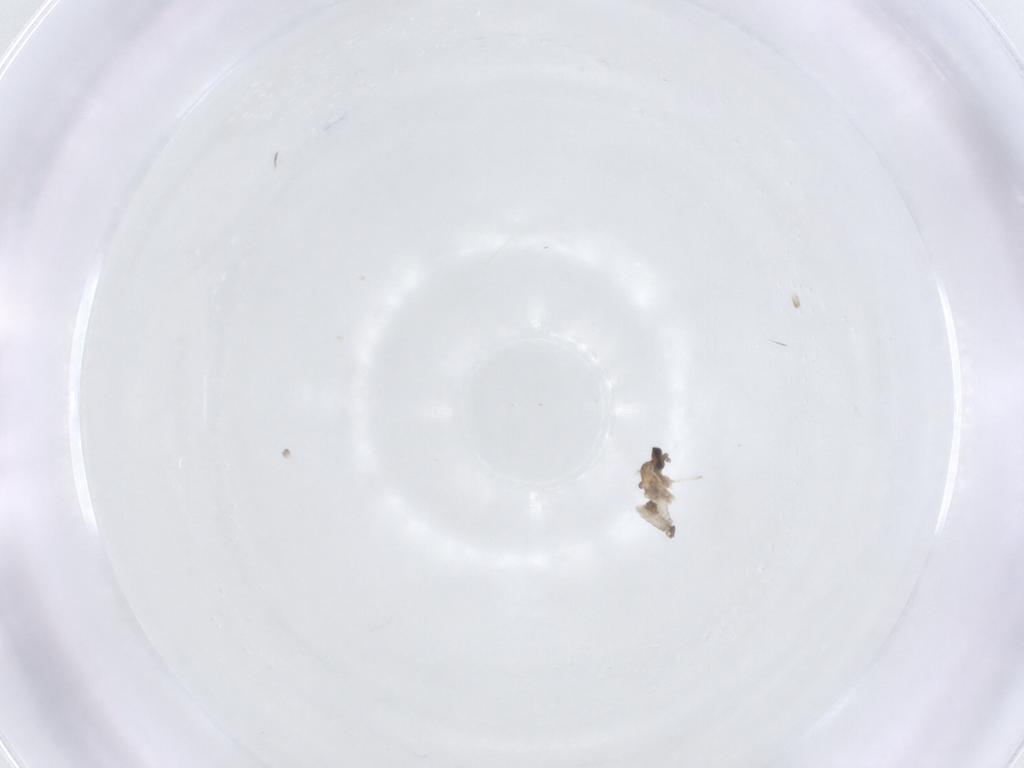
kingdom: Animalia
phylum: Arthropoda
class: Insecta
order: Diptera
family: Cecidomyiidae
